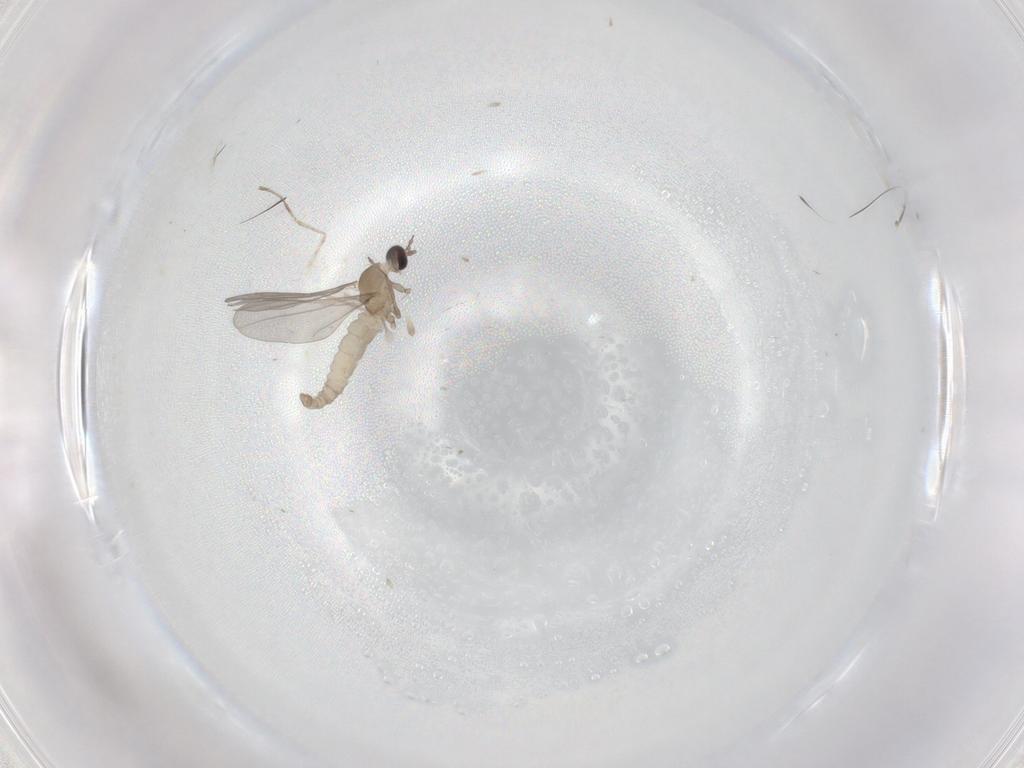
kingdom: Animalia
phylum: Arthropoda
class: Insecta
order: Diptera
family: Cecidomyiidae
